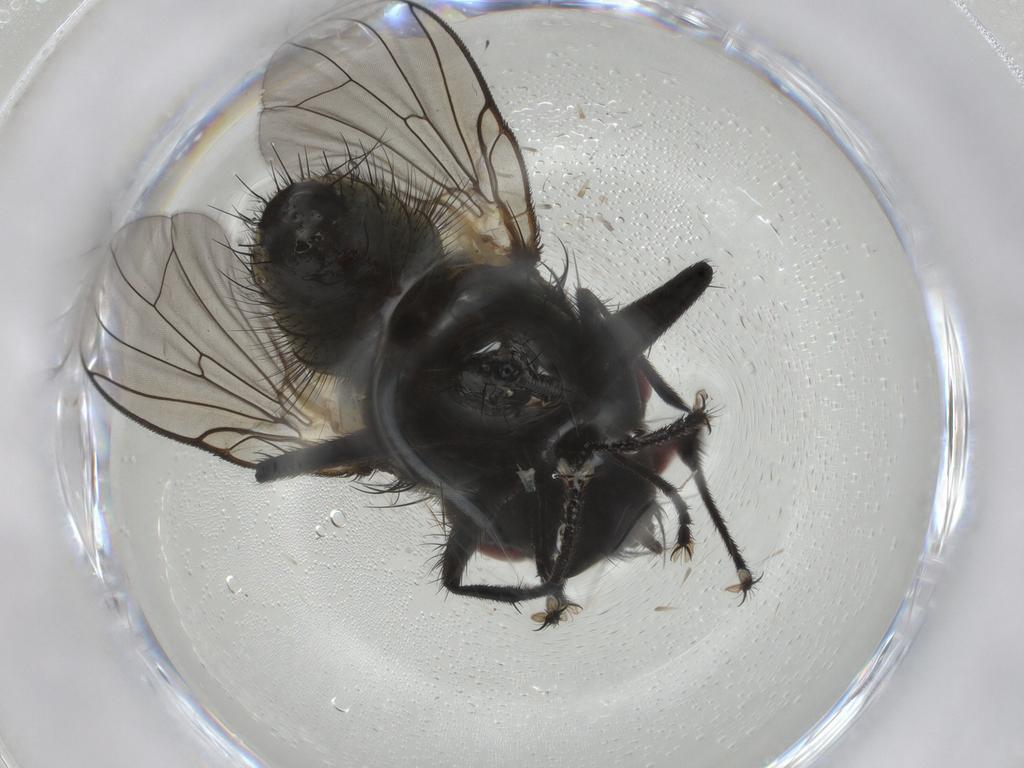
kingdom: Animalia
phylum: Arthropoda
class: Insecta
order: Diptera
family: Muscidae
